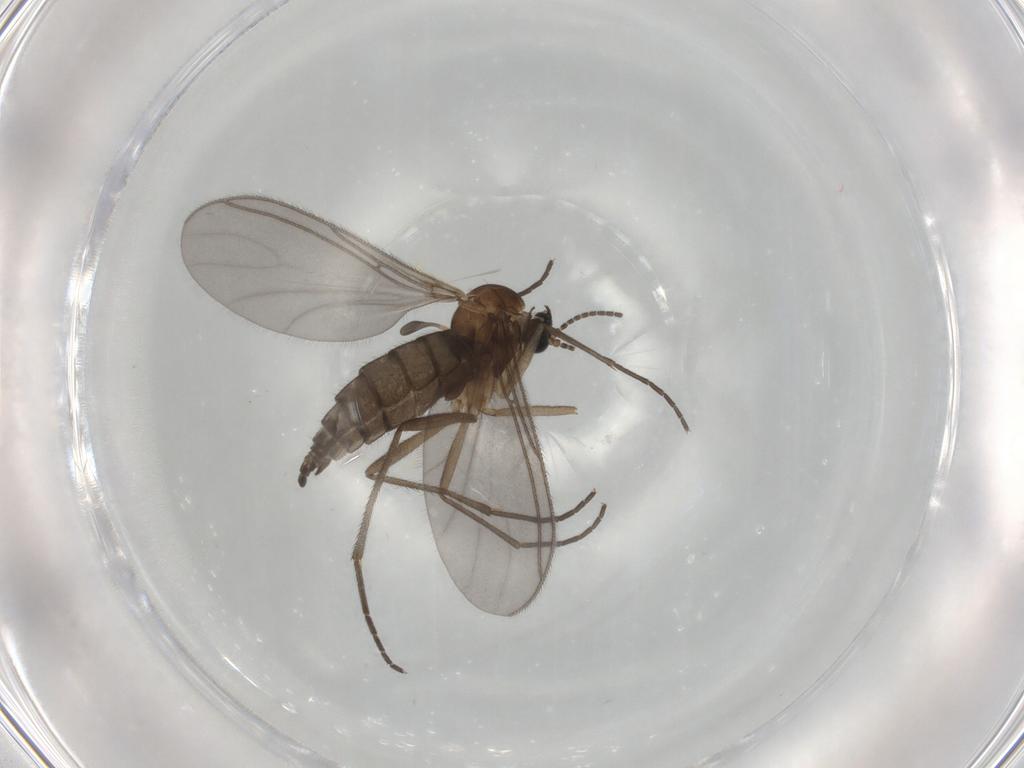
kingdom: Animalia
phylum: Arthropoda
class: Insecta
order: Diptera
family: Sciaridae
